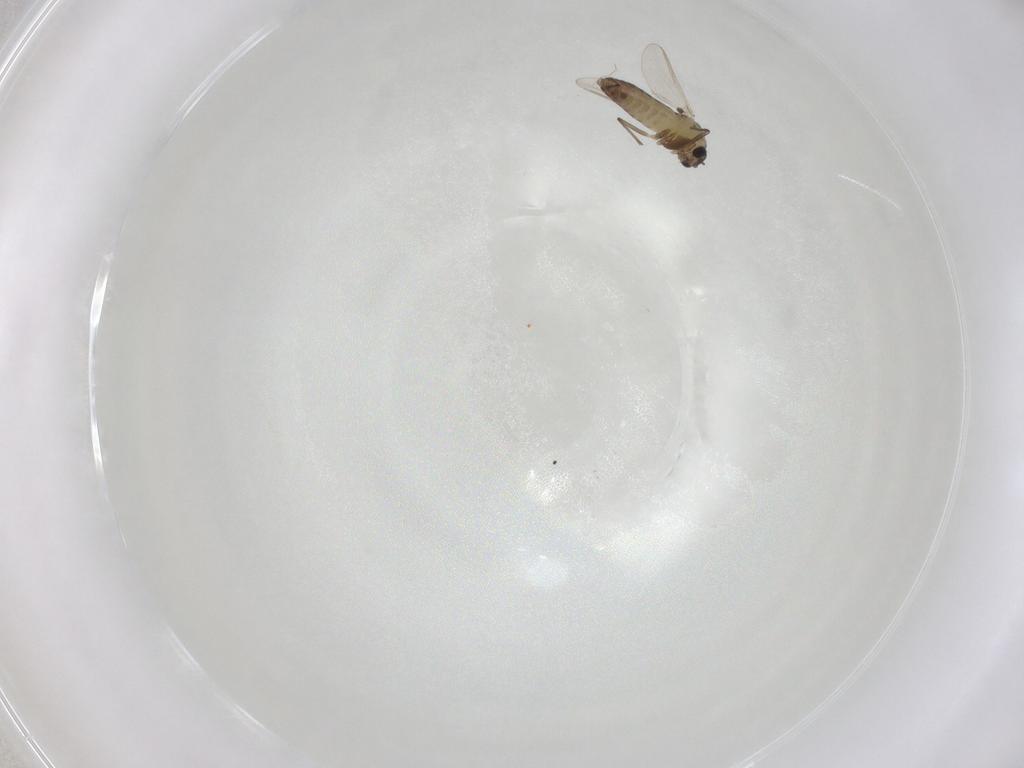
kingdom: Animalia
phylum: Arthropoda
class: Insecta
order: Diptera
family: Chironomidae
